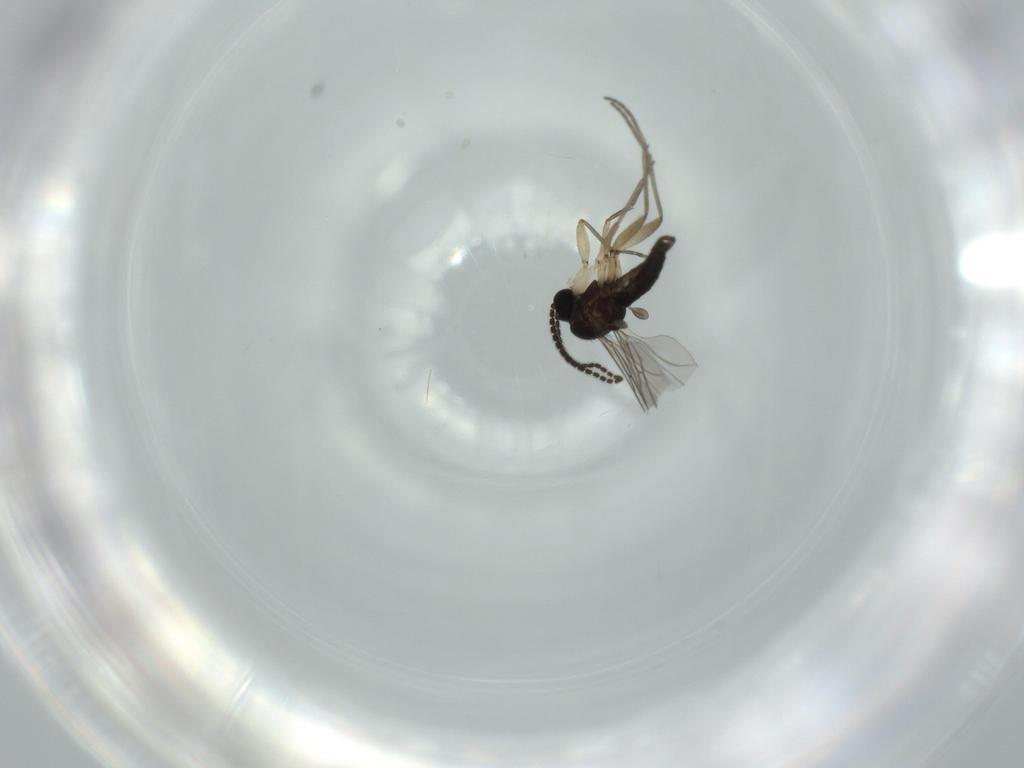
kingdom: Animalia
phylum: Arthropoda
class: Insecta
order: Diptera
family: Sciaridae
